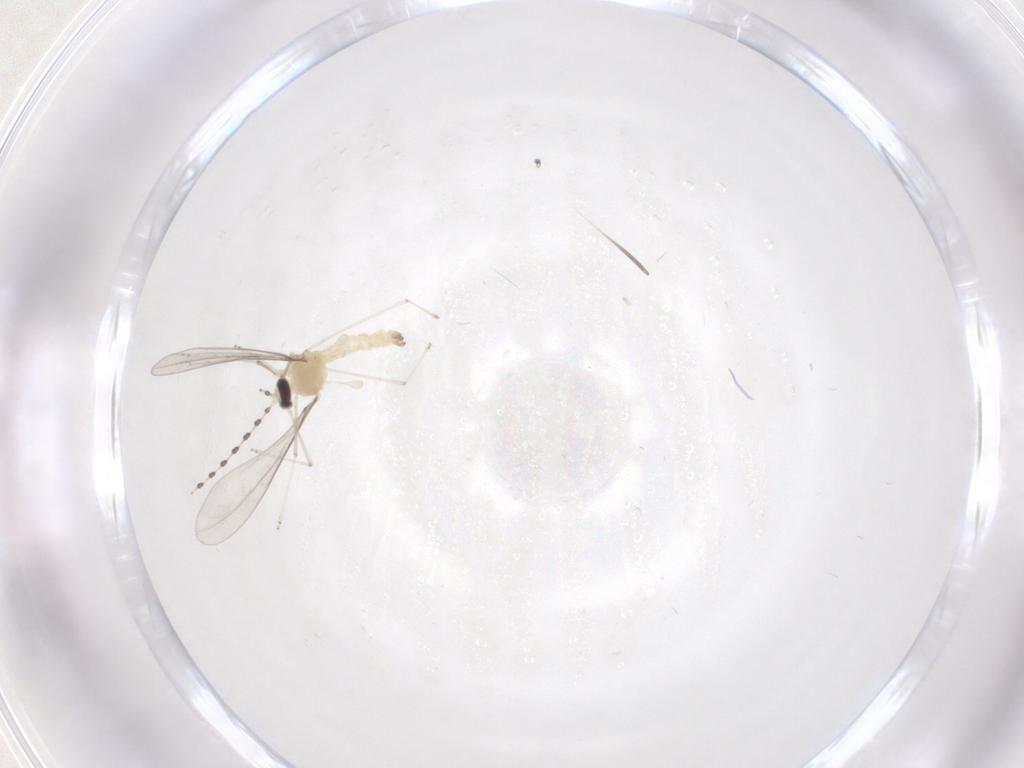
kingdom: Animalia
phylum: Arthropoda
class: Insecta
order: Diptera
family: Cecidomyiidae
